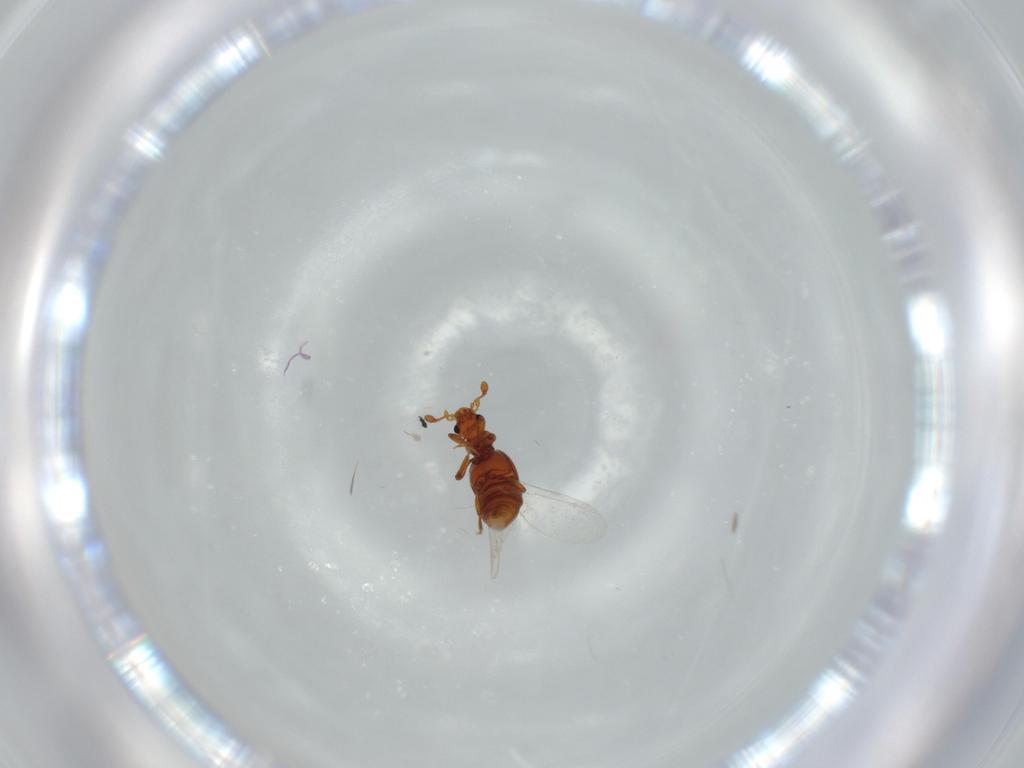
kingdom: Animalia
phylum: Arthropoda
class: Insecta
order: Coleoptera
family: Staphylinidae
